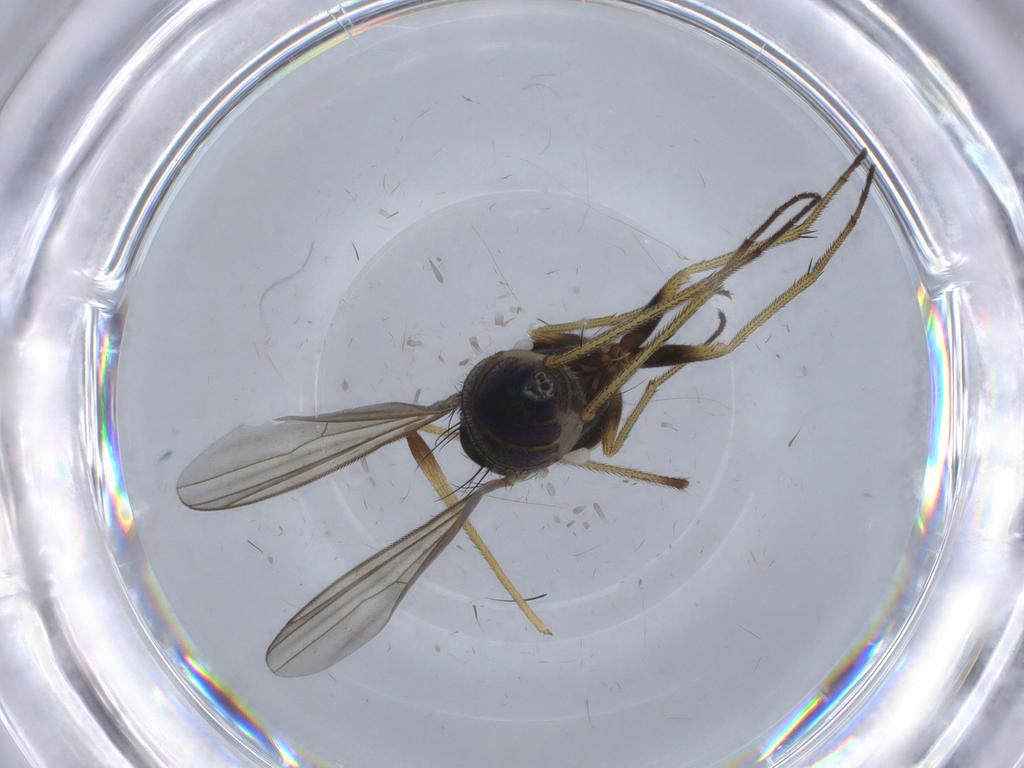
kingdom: Animalia
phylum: Arthropoda
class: Insecta
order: Diptera
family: Dolichopodidae
